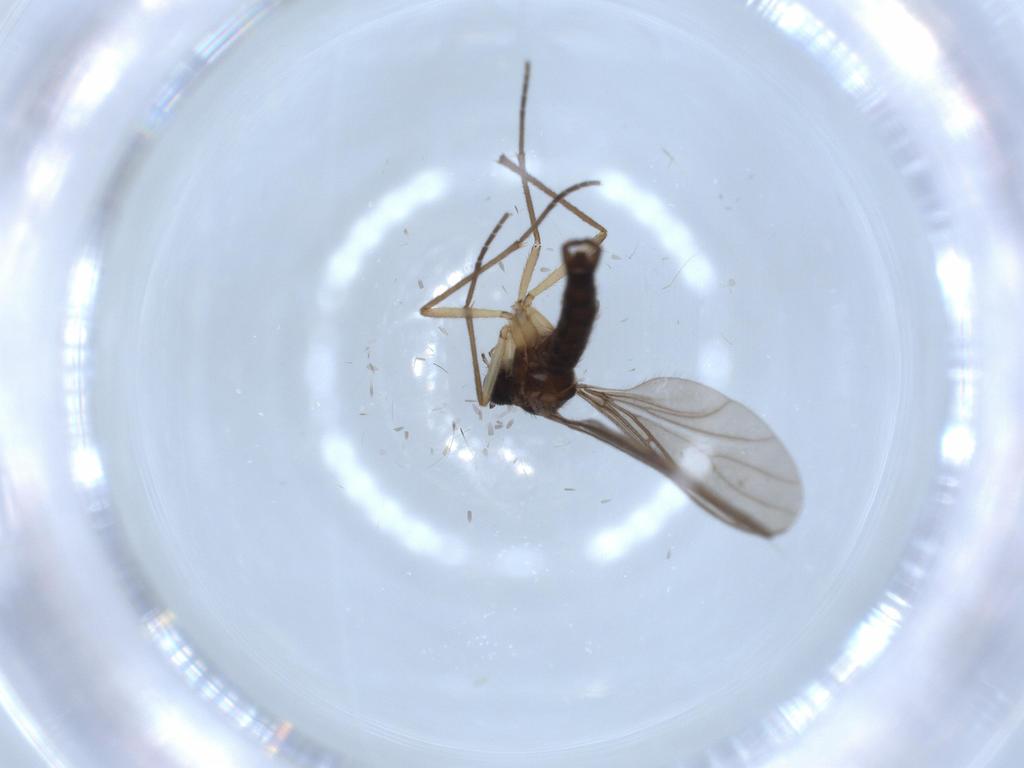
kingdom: Animalia
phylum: Arthropoda
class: Insecta
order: Diptera
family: Sciaridae
